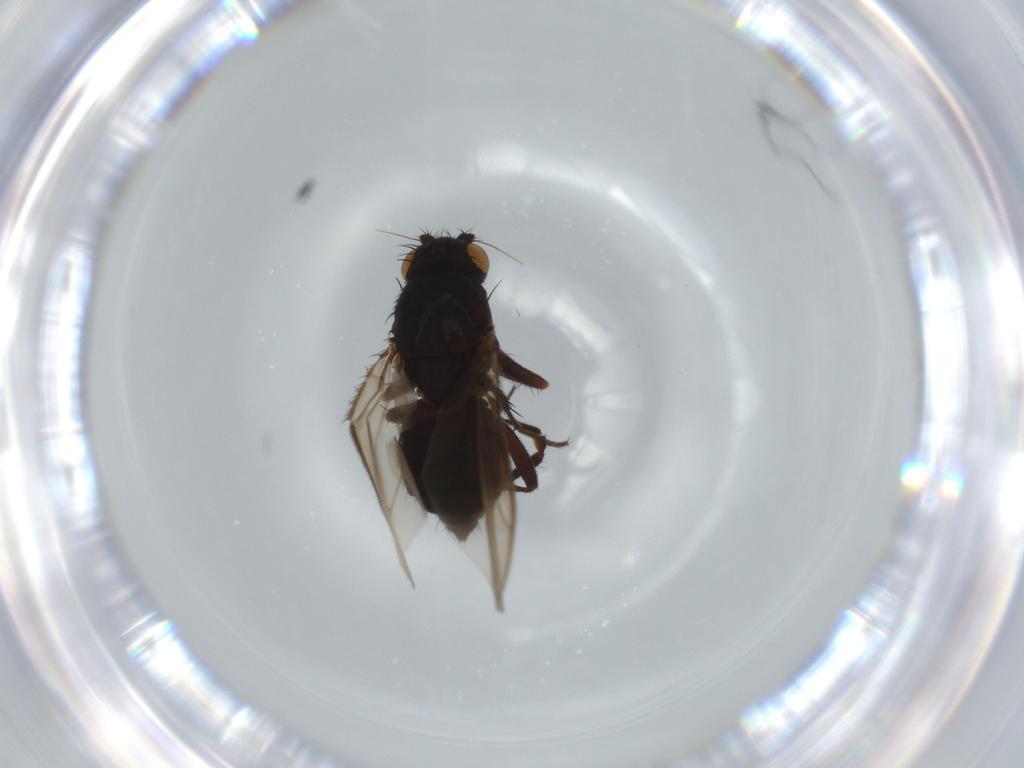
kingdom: Animalia
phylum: Arthropoda
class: Insecta
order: Diptera
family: Sphaeroceridae
